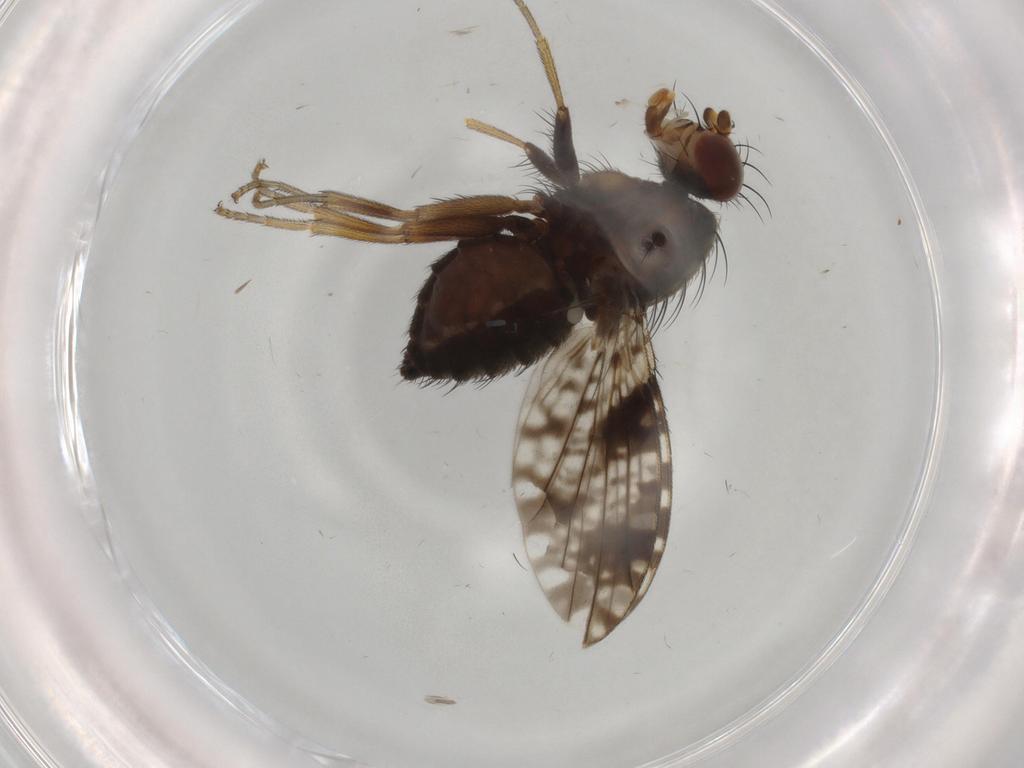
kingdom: Animalia
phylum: Arthropoda
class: Insecta
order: Diptera
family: Tephritidae
